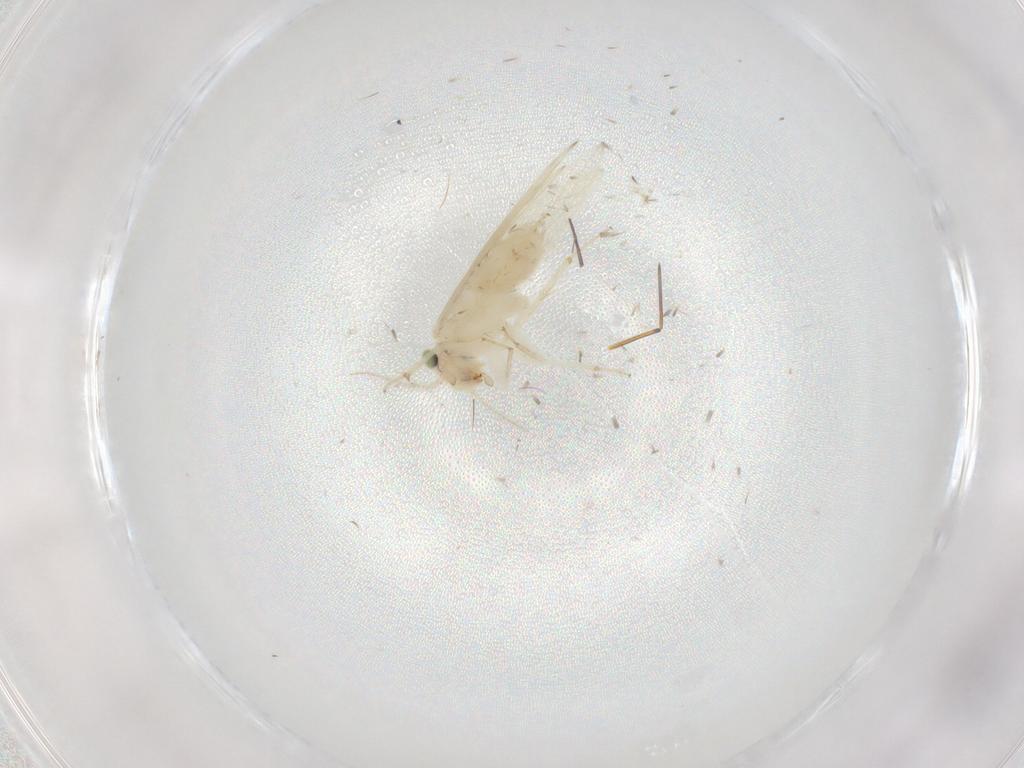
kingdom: Animalia
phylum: Arthropoda
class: Insecta
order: Psocodea
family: Lepidopsocidae
